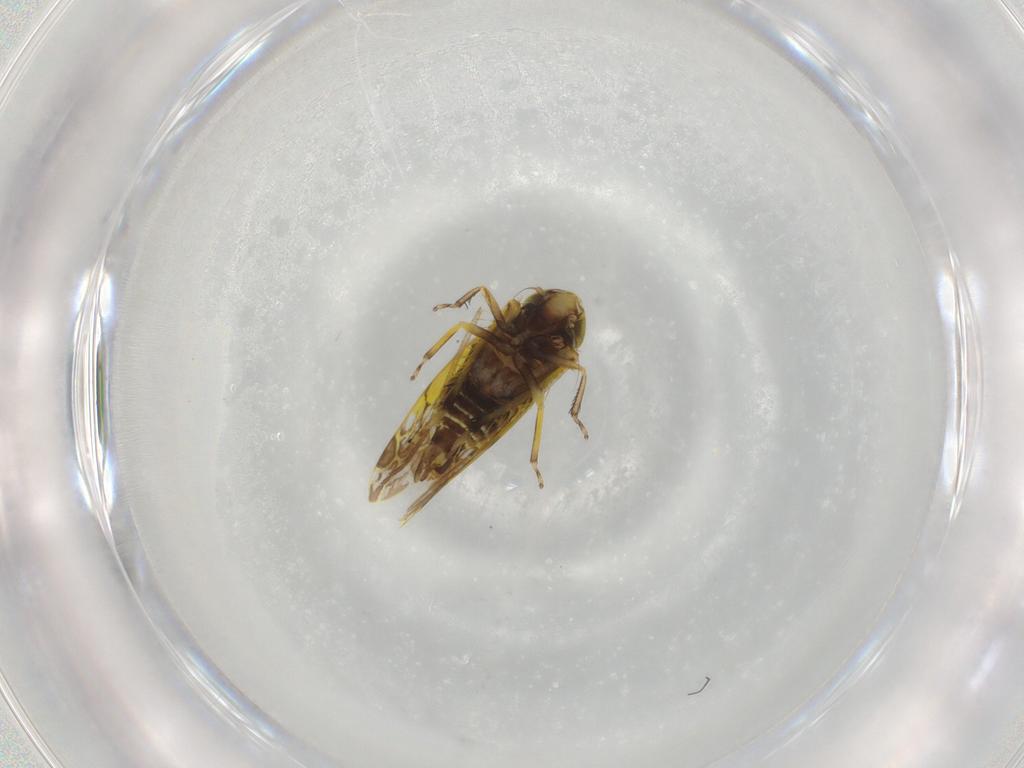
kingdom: Animalia
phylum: Arthropoda
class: Insecta
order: Hemiptera
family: Cicadellidae
